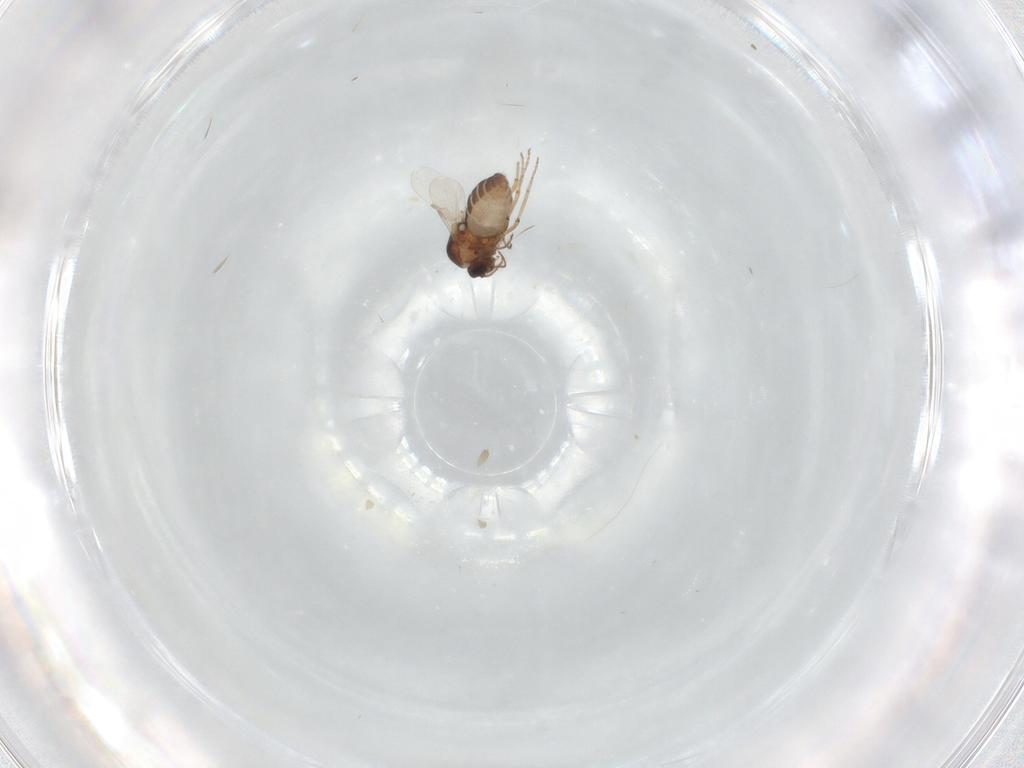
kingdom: Animalia
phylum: Arthropoda
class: Insecta
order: Diptera
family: Ceratopogonidae
